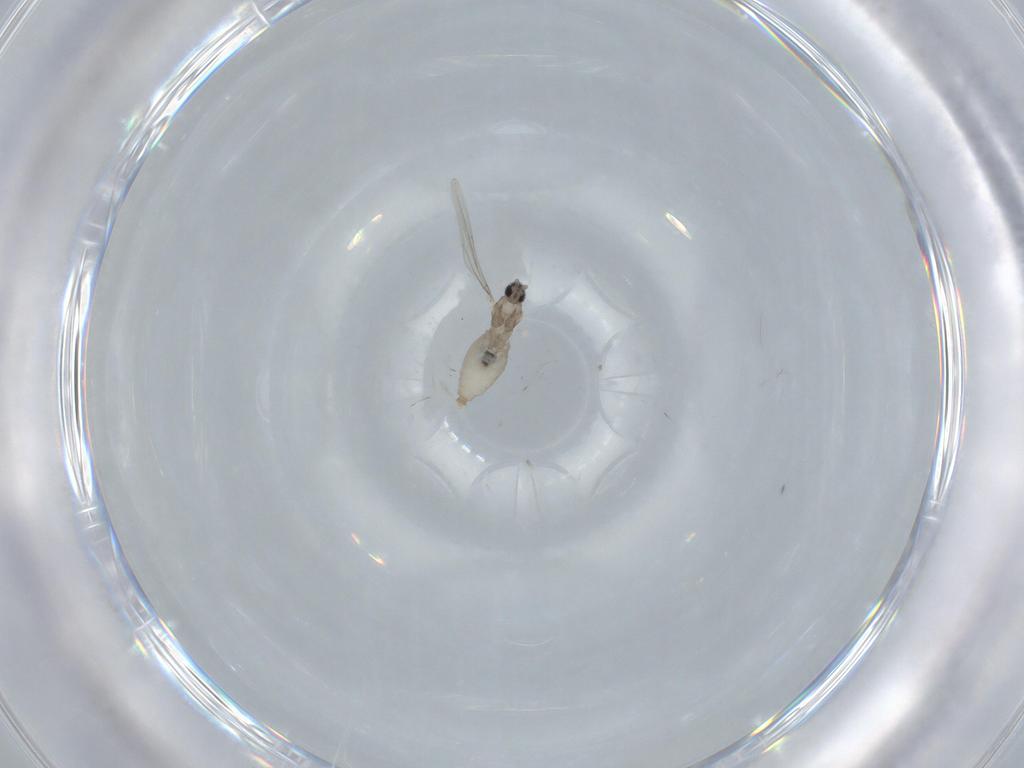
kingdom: Animalia
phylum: Arthropoda
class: Insecta
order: Diptera
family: Cecidomyiidae
